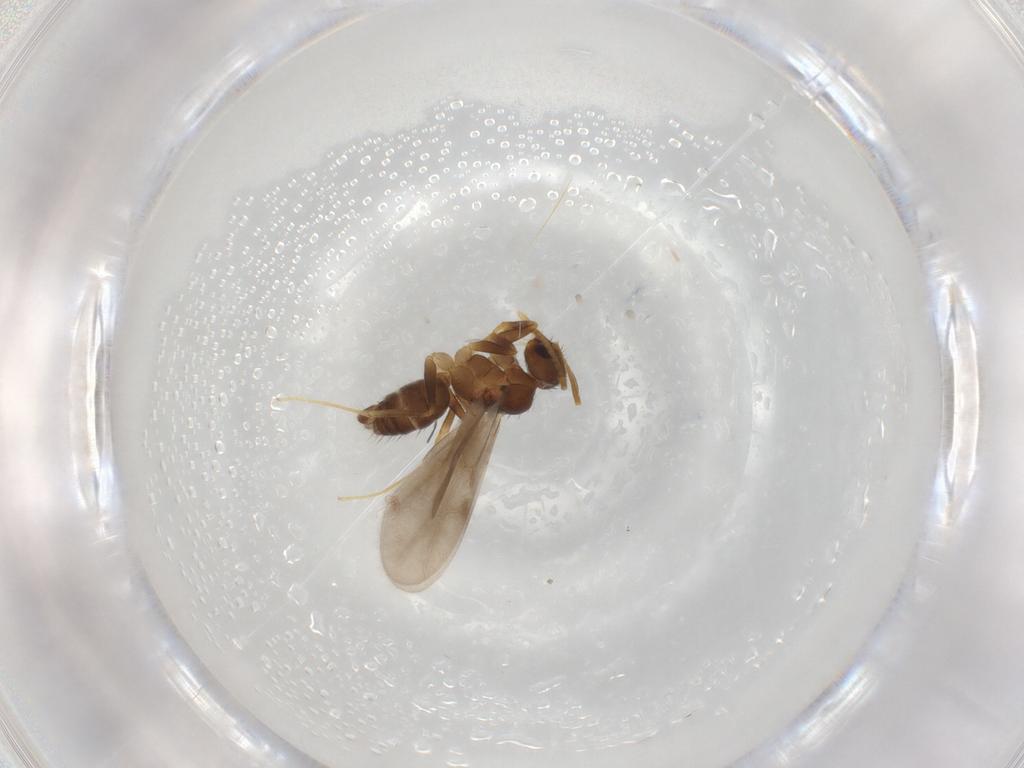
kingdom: Animalia
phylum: Arthropoda
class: Insecta
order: Hymenoptera
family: Formicidae
